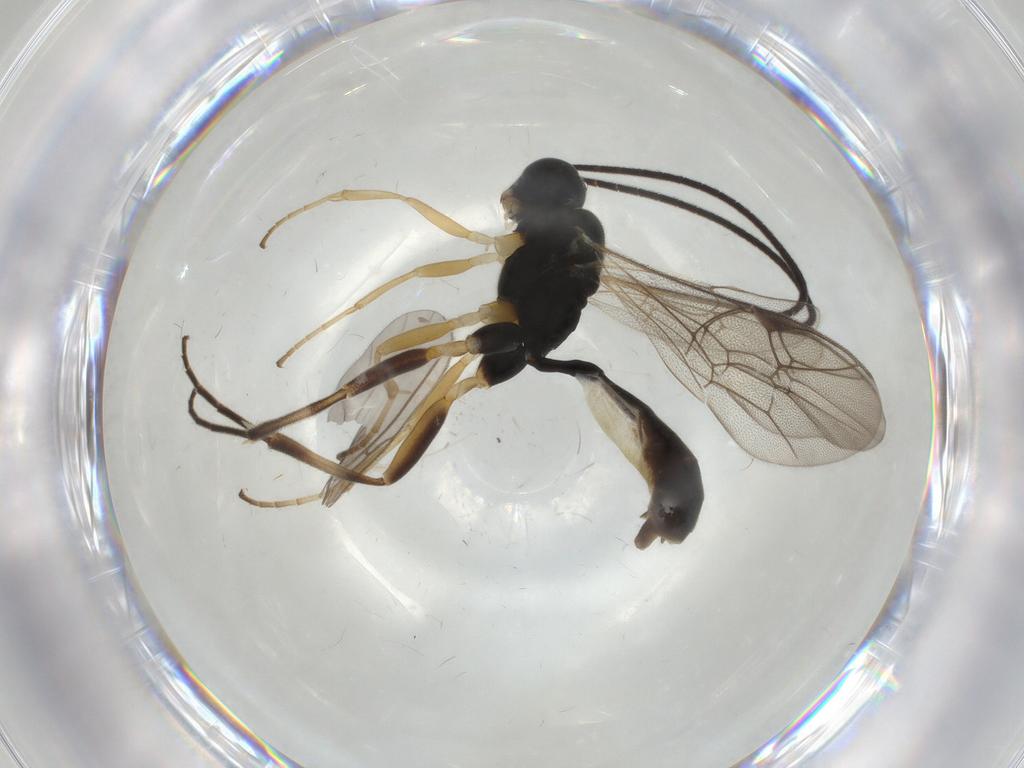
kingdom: Animalia
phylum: Arthropoda
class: Insecta
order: Hymenoptera
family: Ichneumonidae
